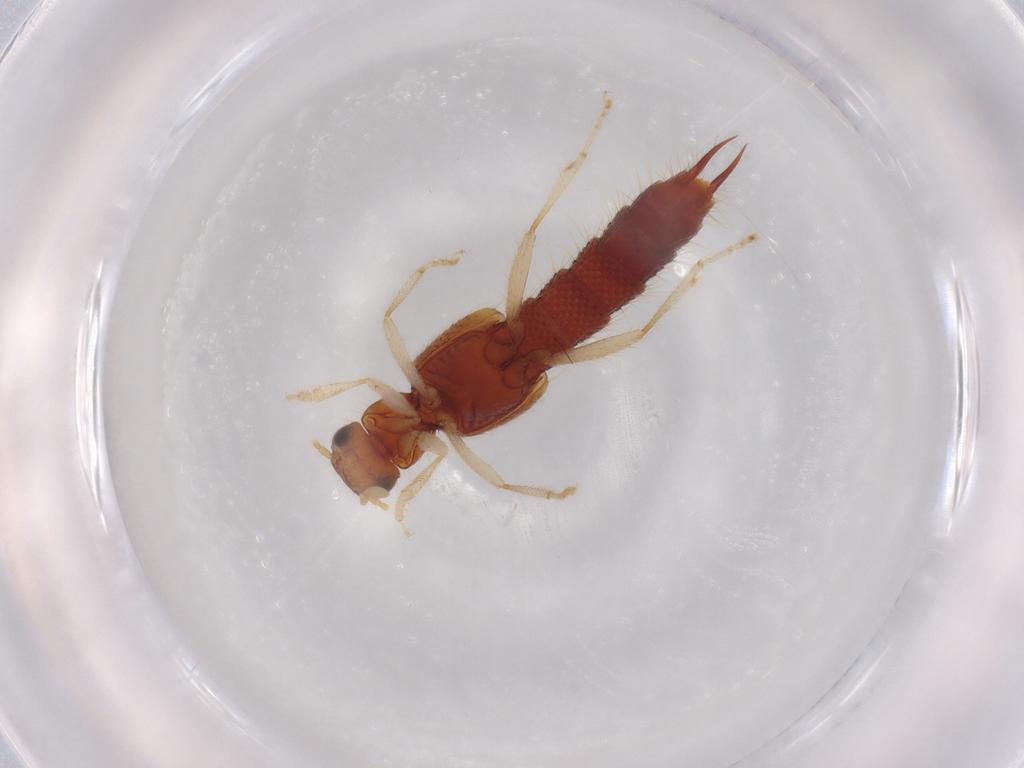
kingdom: Animalia
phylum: Arthropoda
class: Insecta
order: Coleoptera
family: Staphylinidae
